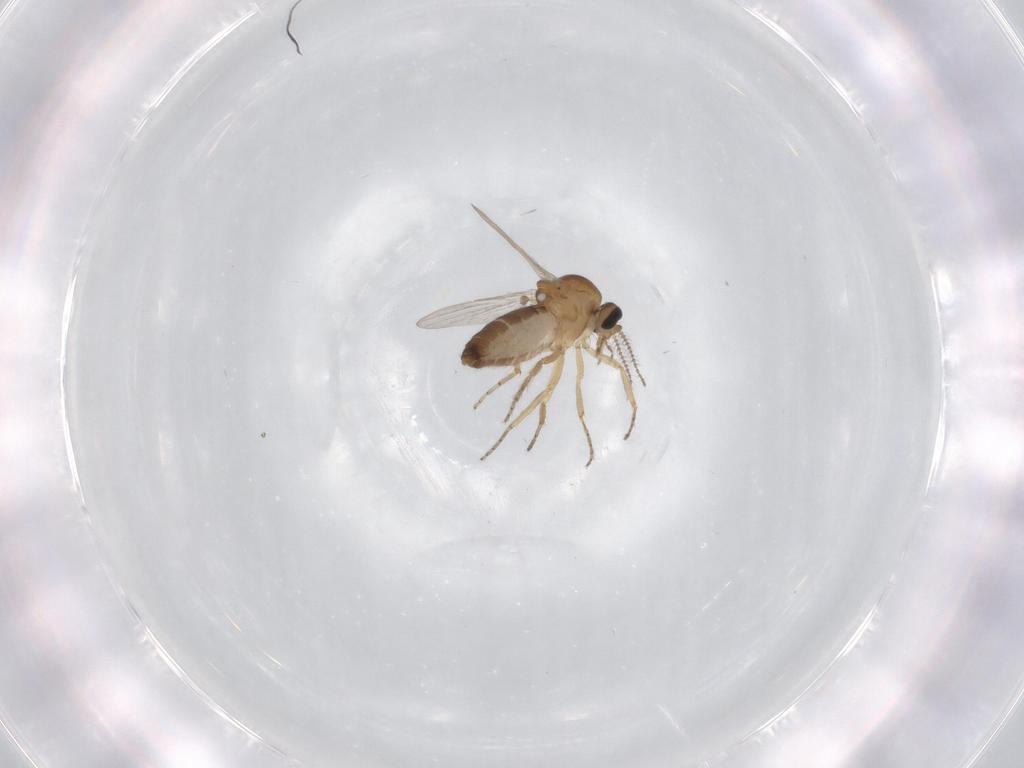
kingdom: Animalia
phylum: Arthropoda
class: Insecta
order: Diptera
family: Ceratopogonidae
